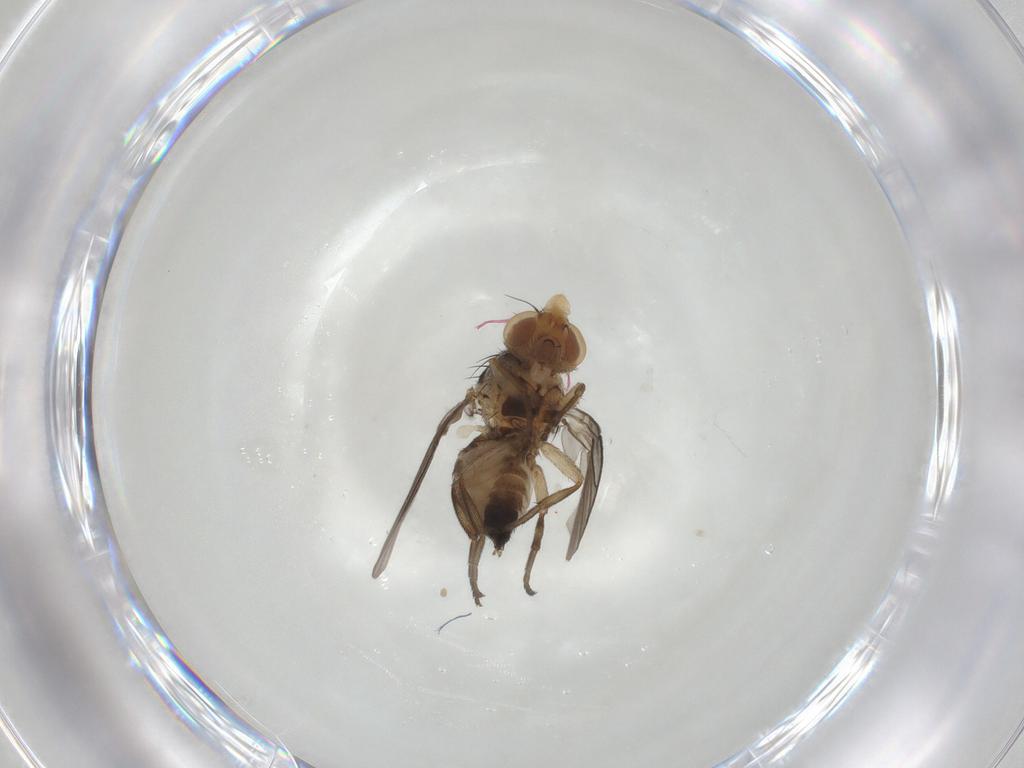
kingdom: Animalia
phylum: Arthropoda
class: Insecta
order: Diptera
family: Agromyzidae
